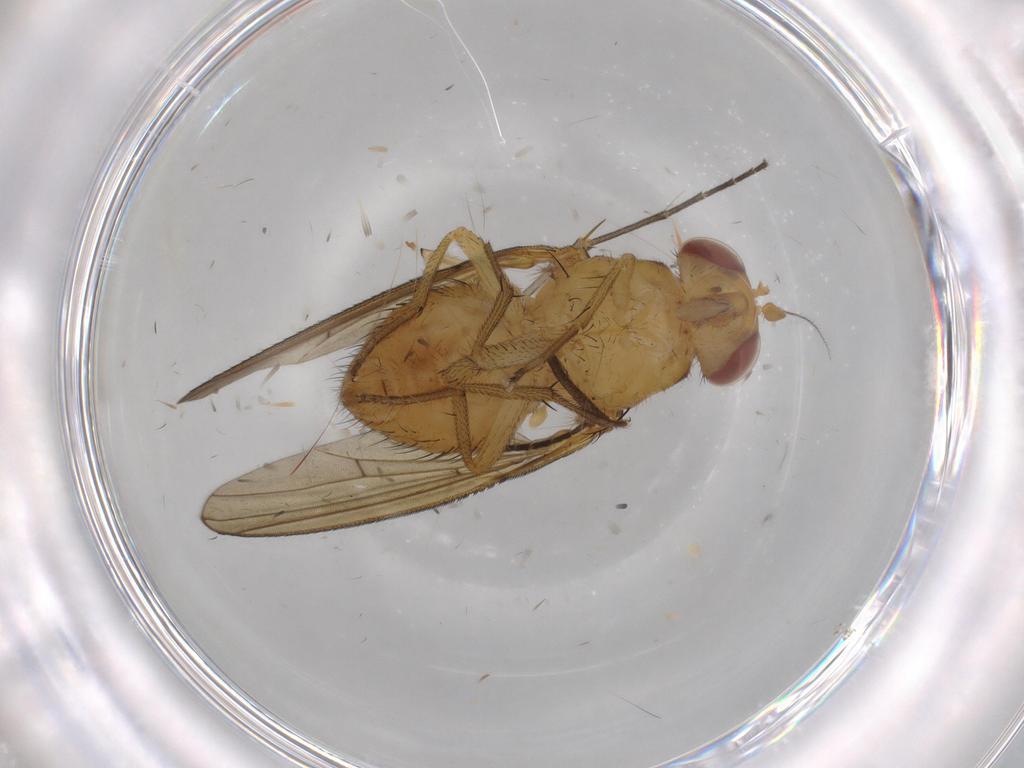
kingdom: Animalia
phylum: Arthropoda
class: Insecta
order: Diptera
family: Lauxaniidae
